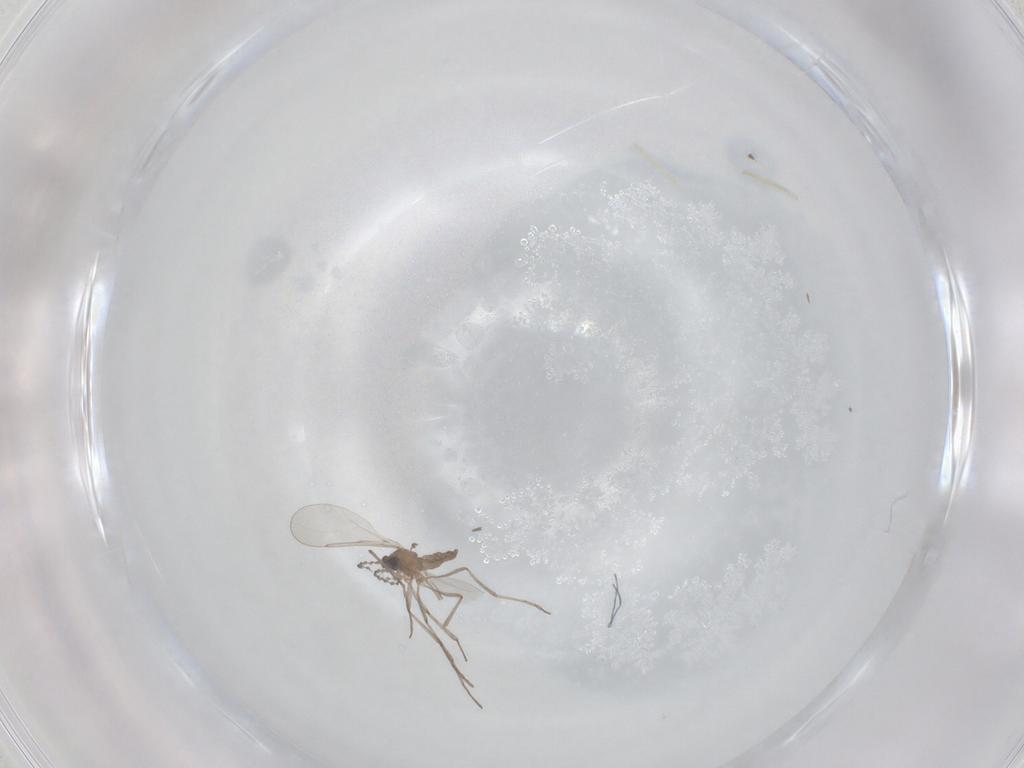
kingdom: Animalia
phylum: Arthropoda
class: Insecta
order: Diptera
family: Cecidomyiidae
